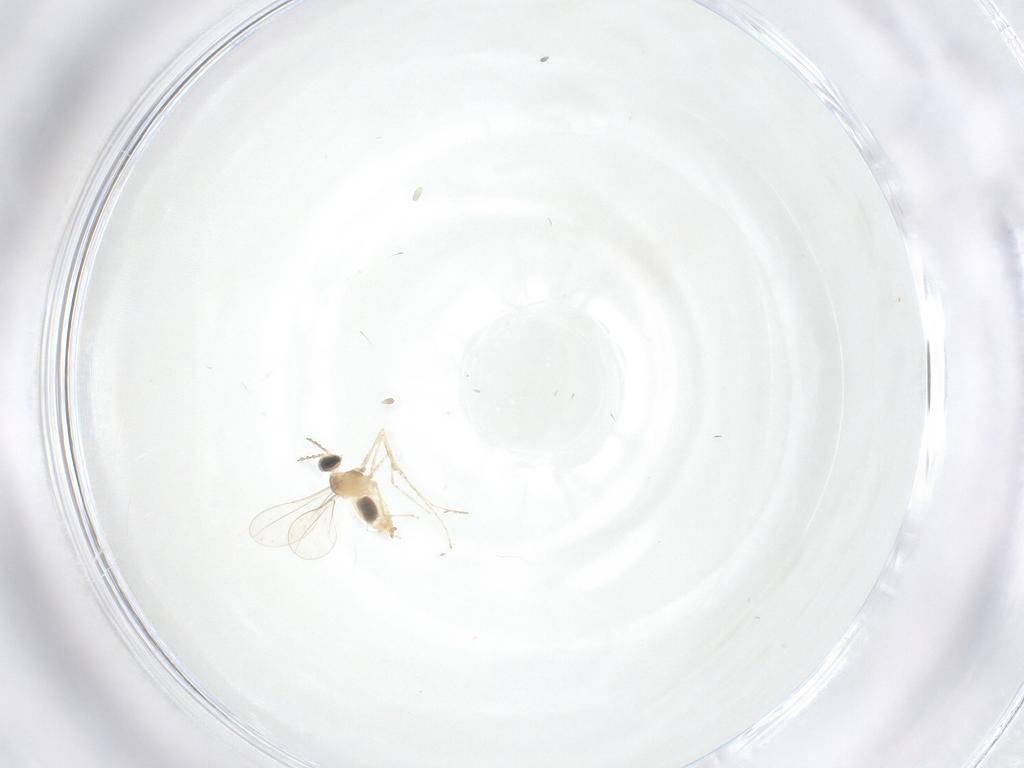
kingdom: Animalia
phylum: Arthropoda
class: Insecta
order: Diptera
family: Cecidomyiidae
